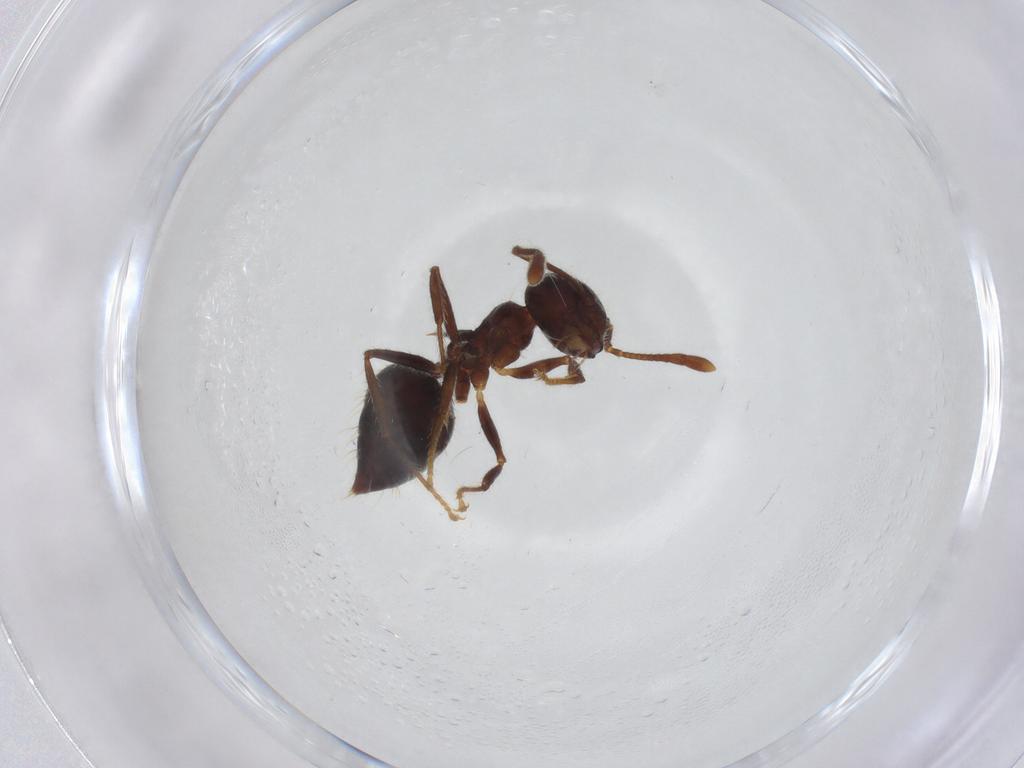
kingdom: Animalia
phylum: Arthropoda
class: Insecta
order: Hymenoptera
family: Formicidae
